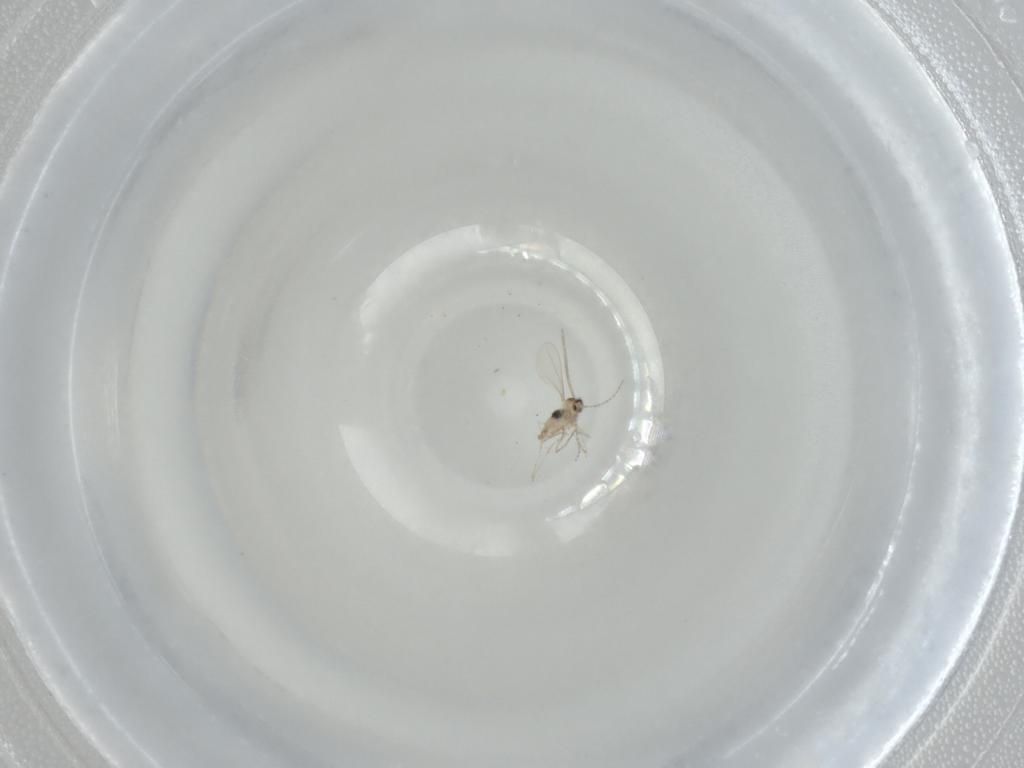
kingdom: Animalia
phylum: Arthropoda
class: Insecta
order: Diptera
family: Cecidomyiidae
